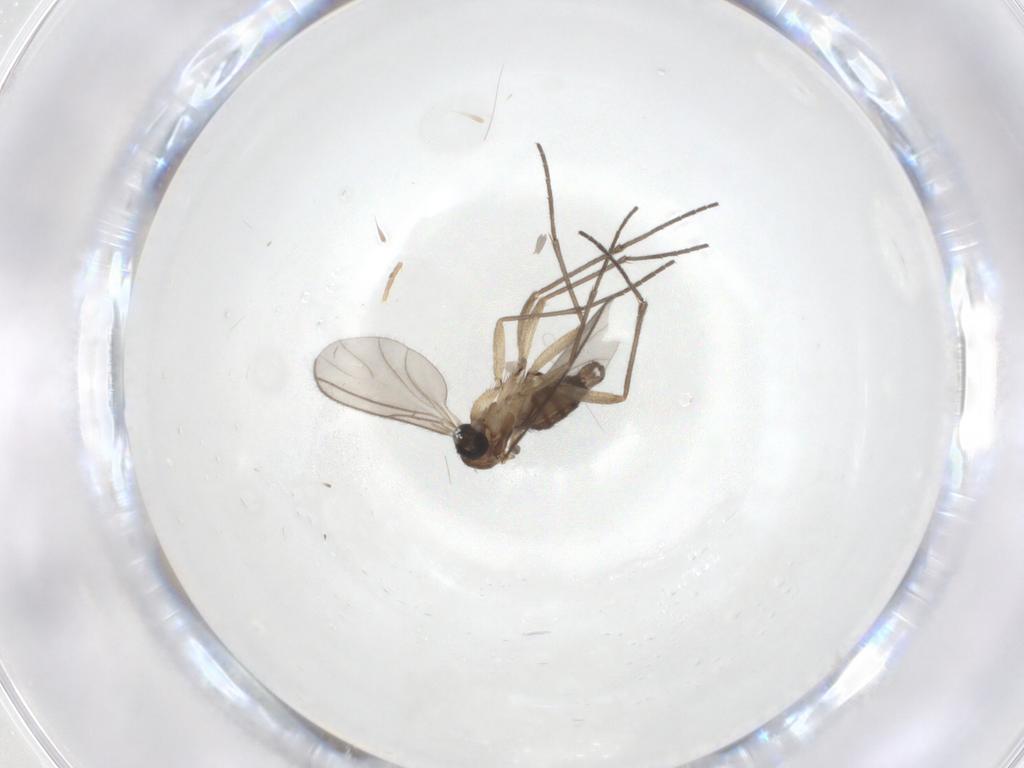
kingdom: Animalia
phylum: Arthropoda
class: Insecta
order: Diptera
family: Sciaridae
